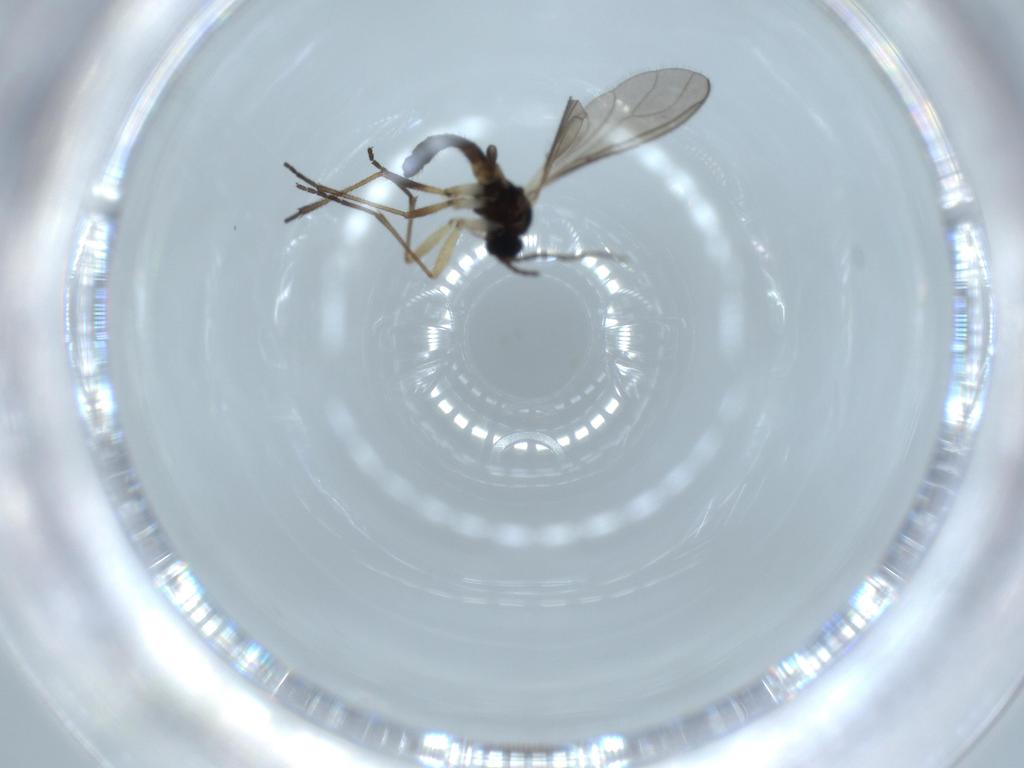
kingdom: Animalia
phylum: Arthropoda
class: Insecta
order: Diptera
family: Sciaridae
